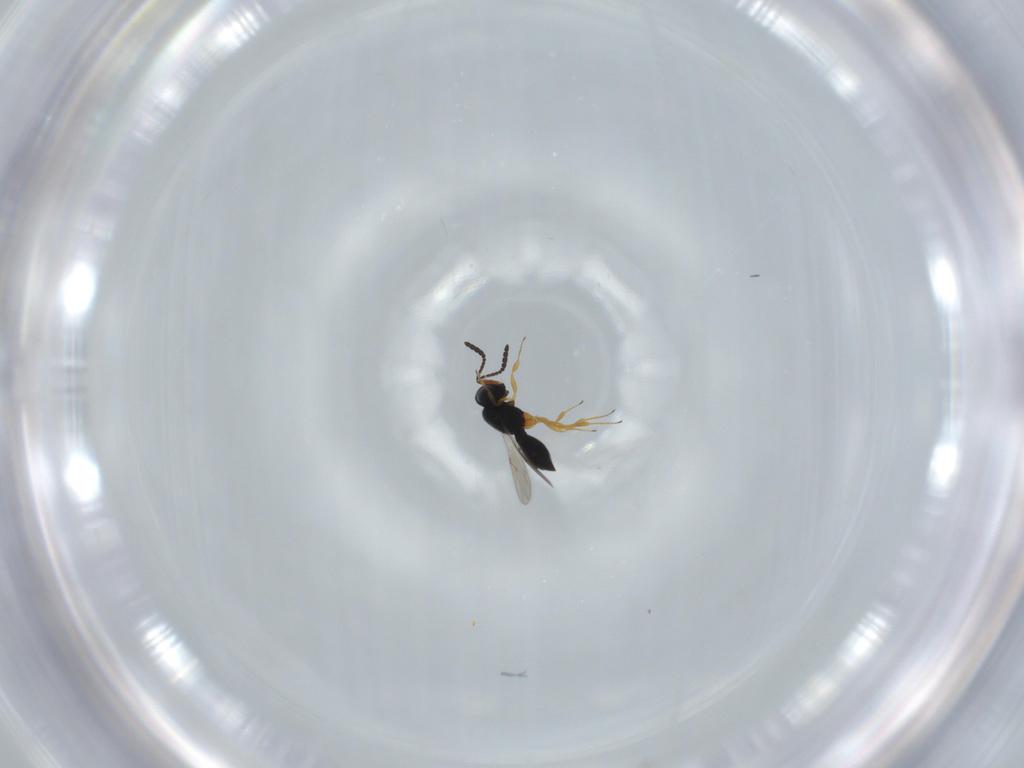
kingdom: Animalia
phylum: Arthropoda
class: Insecta
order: Hymenoptera
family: Scelionidae
